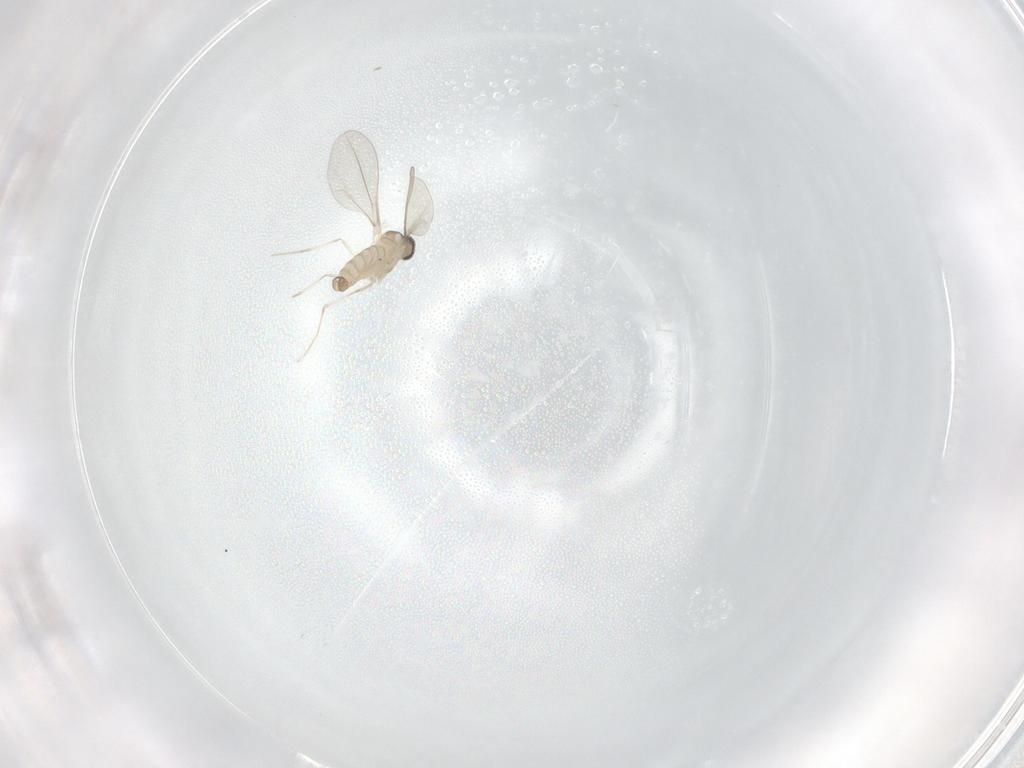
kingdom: Animalia
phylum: Arthropoda
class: Insecta
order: Diptera
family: Cecidomyiidae
